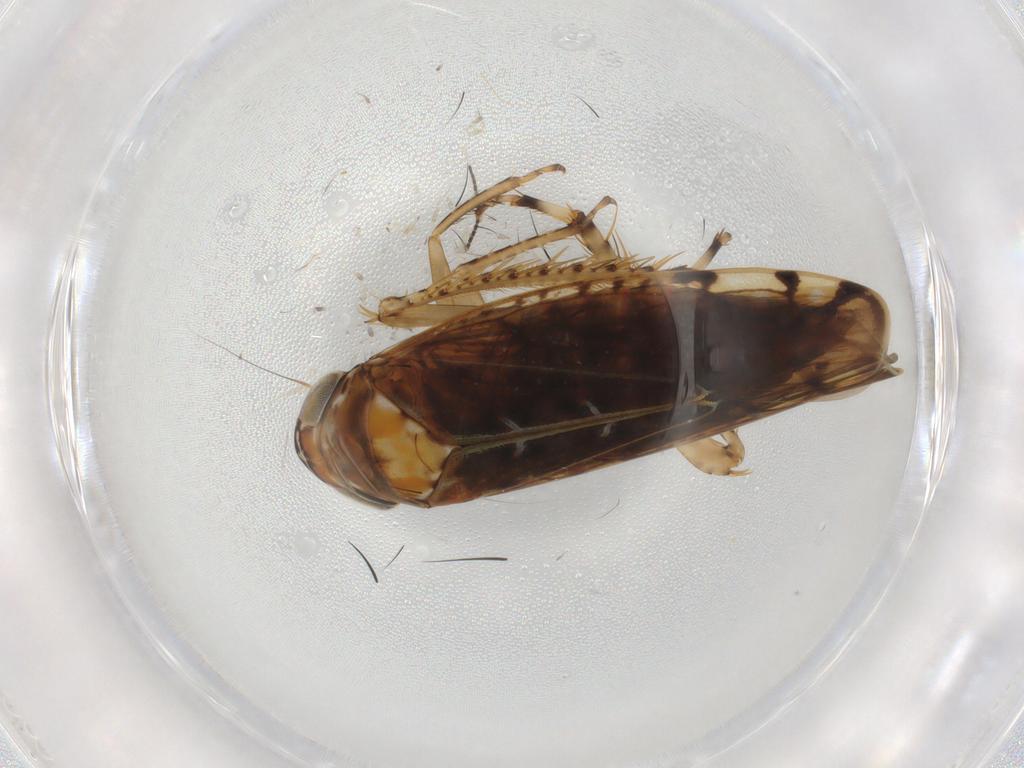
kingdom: Animalia
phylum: Arthropoda
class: Insecta
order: Hemiptera
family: Cicadellidae
